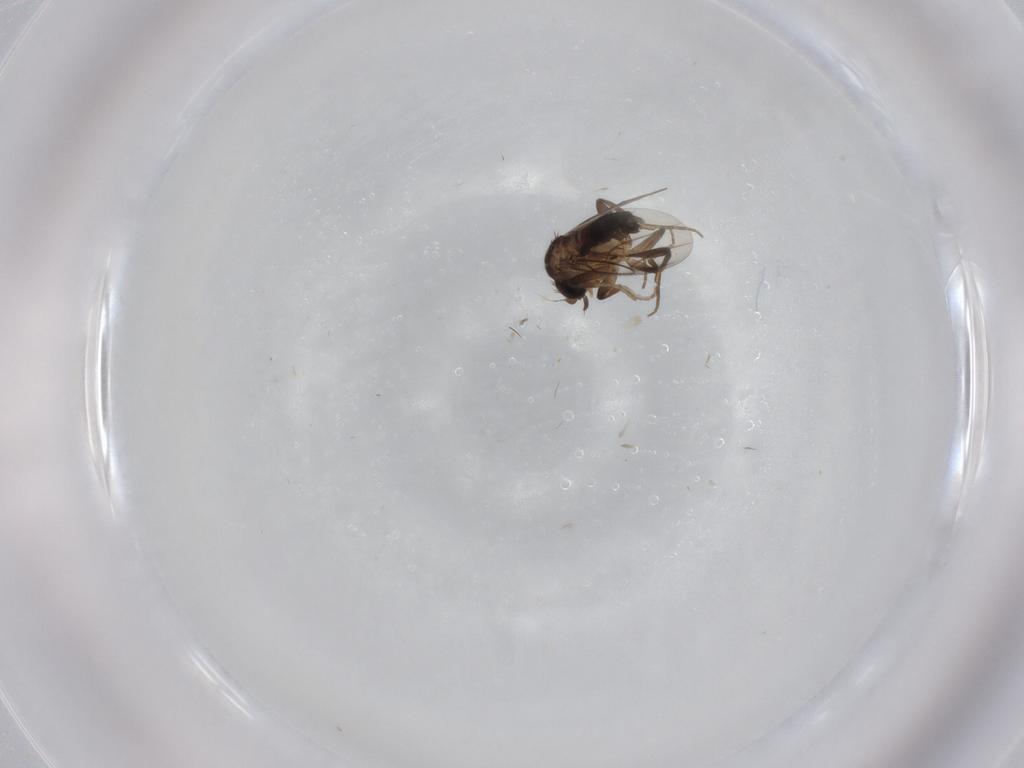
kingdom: Animalia
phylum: Arthropoda
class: Insecta
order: Diptera
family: Phoridae
